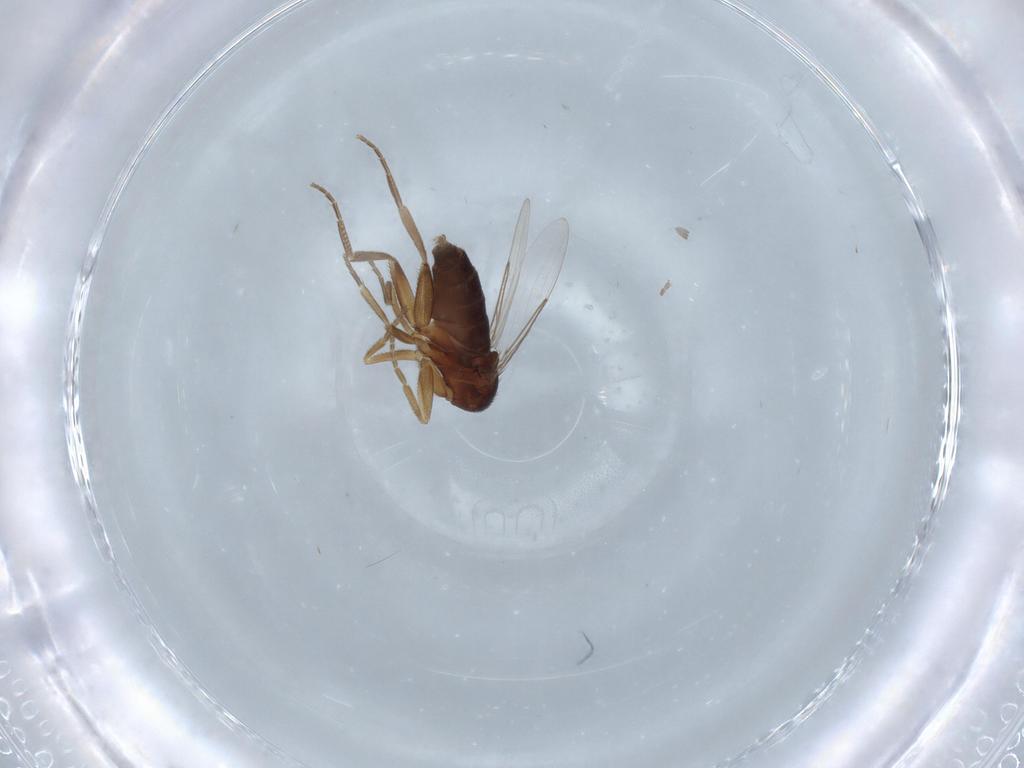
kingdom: Animalia
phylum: Arthropoda
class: Insecta
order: Diptera
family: Phoridae
